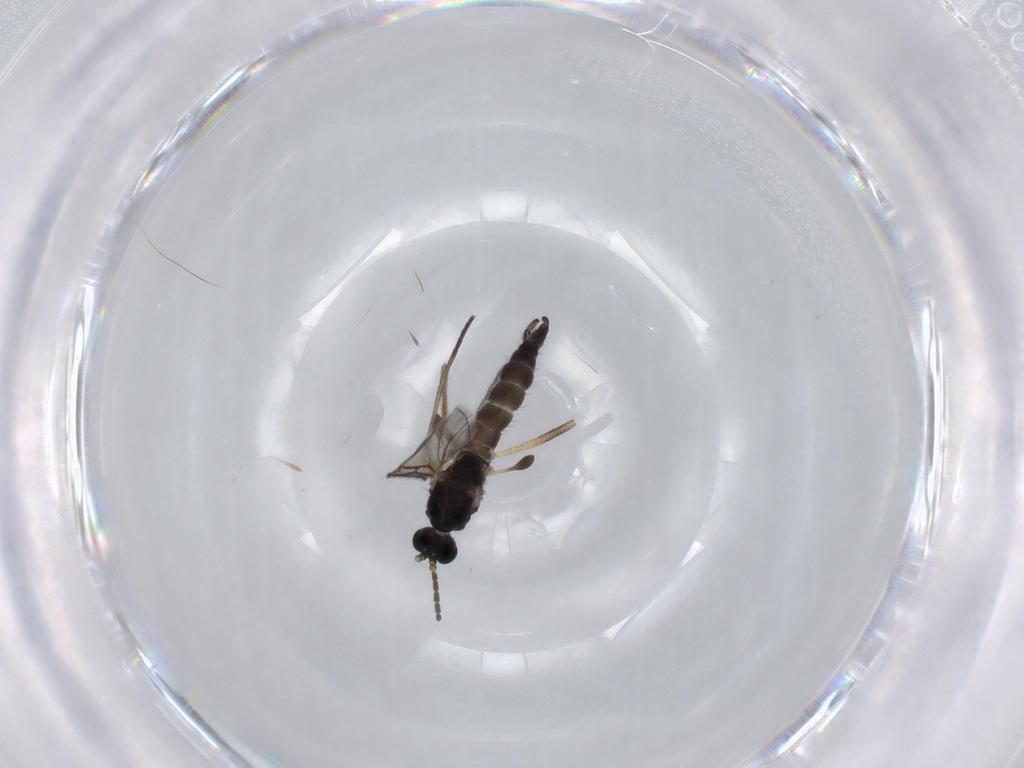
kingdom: Animalia
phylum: Arthropoda
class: Insecta
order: Diptera
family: Sciaridae
